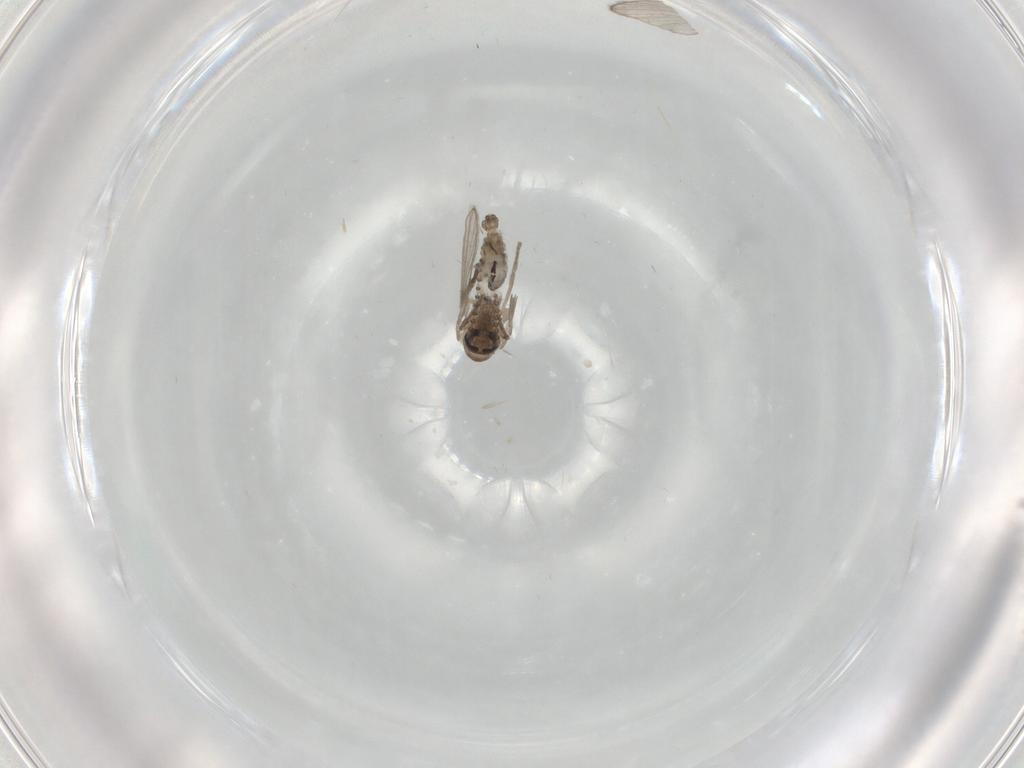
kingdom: Animalia
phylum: Arthropoda
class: Insecta
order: Diptera
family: Psychodidae
